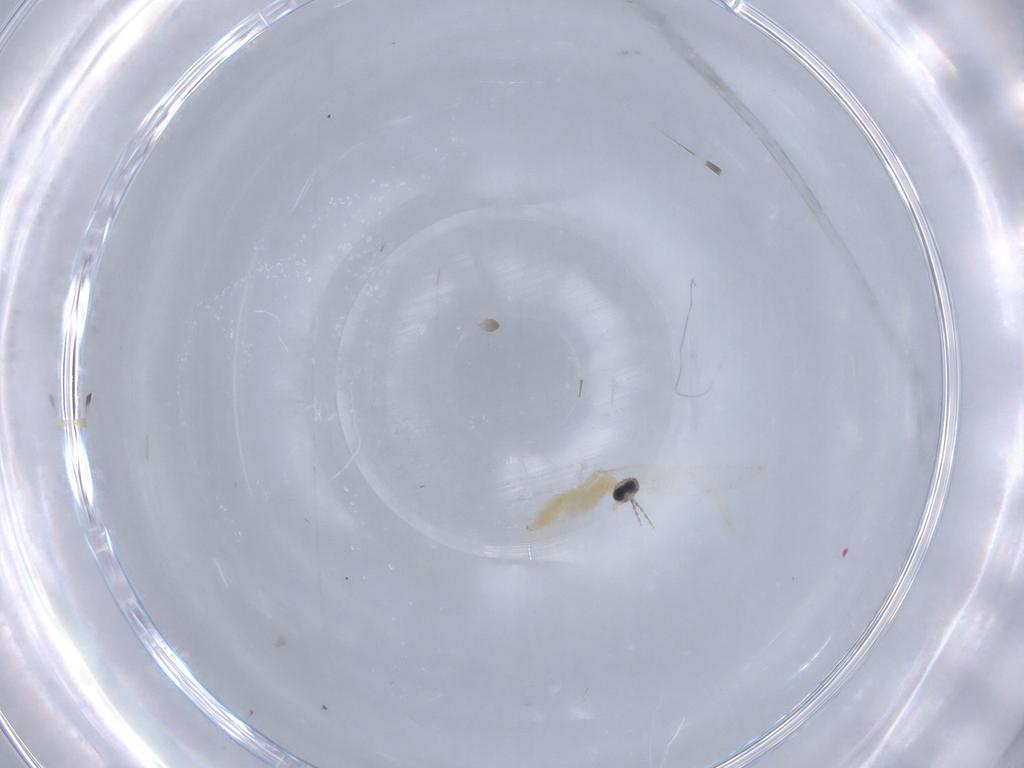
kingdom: Animalia
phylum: Arthropoda
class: Insecta
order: Diptera
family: Cecidomyiidae
